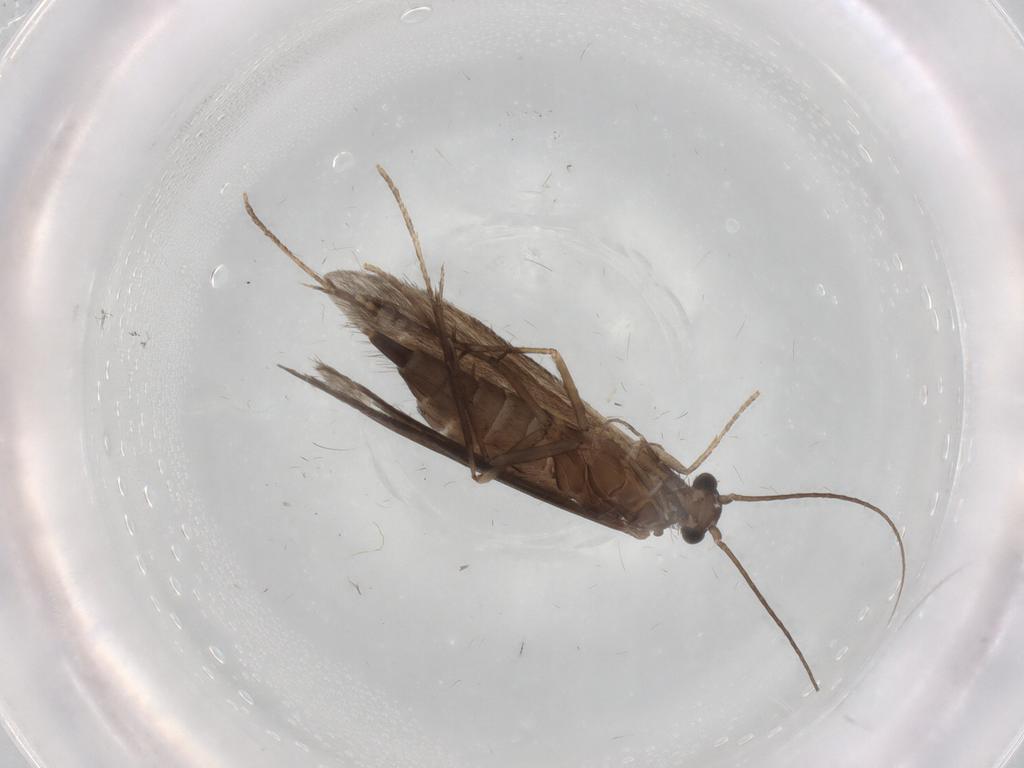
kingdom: Animalia
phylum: Arthropoda
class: Insecta
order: Trichoptera
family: Xiphocentronidae
